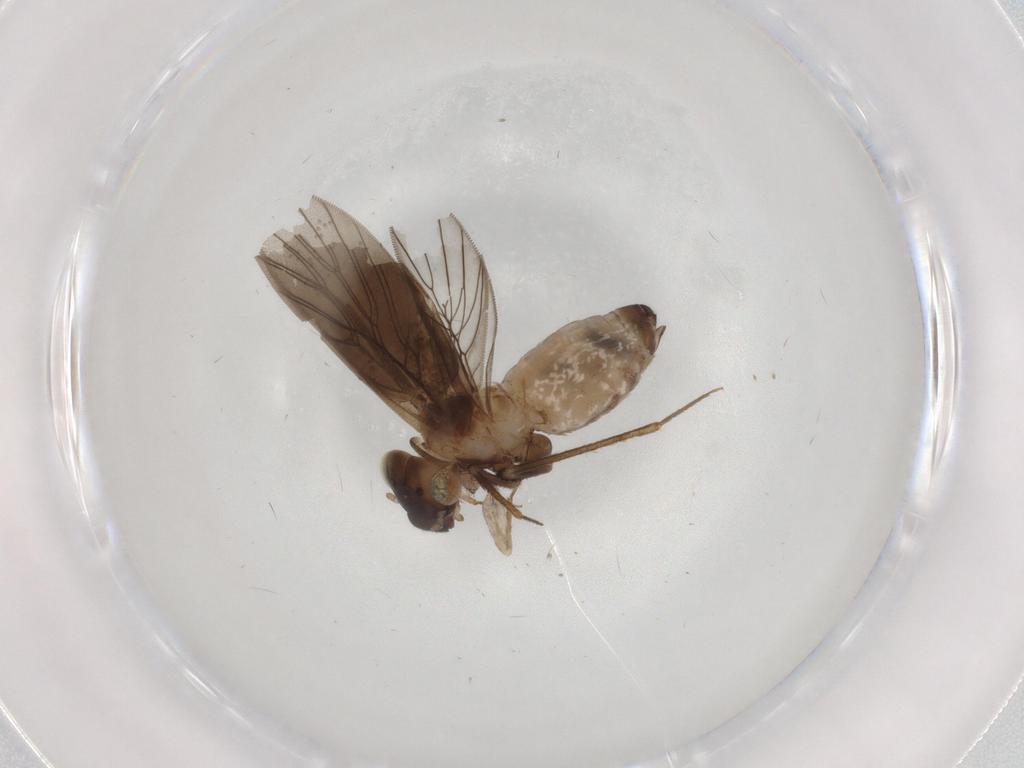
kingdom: Animalia
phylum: Arthropoda
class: Insecta
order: Psocodea
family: Lepidopsocidae
